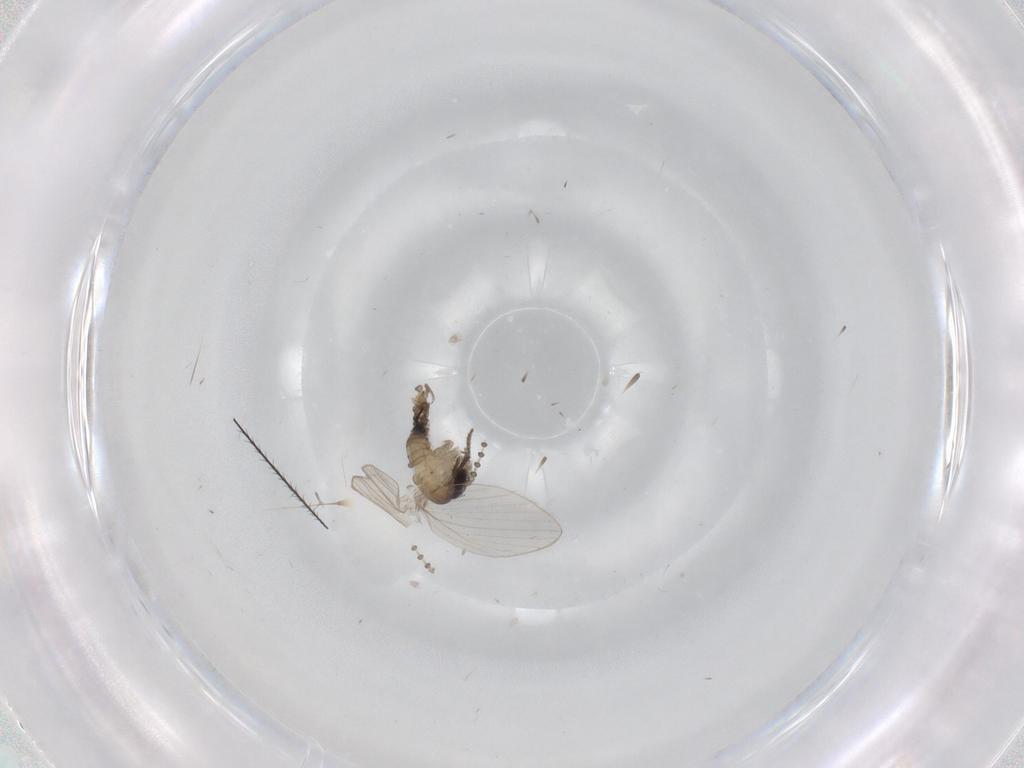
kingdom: Animalia
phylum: Arthropoda
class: Insecta
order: Diptera
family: Psychodidae
